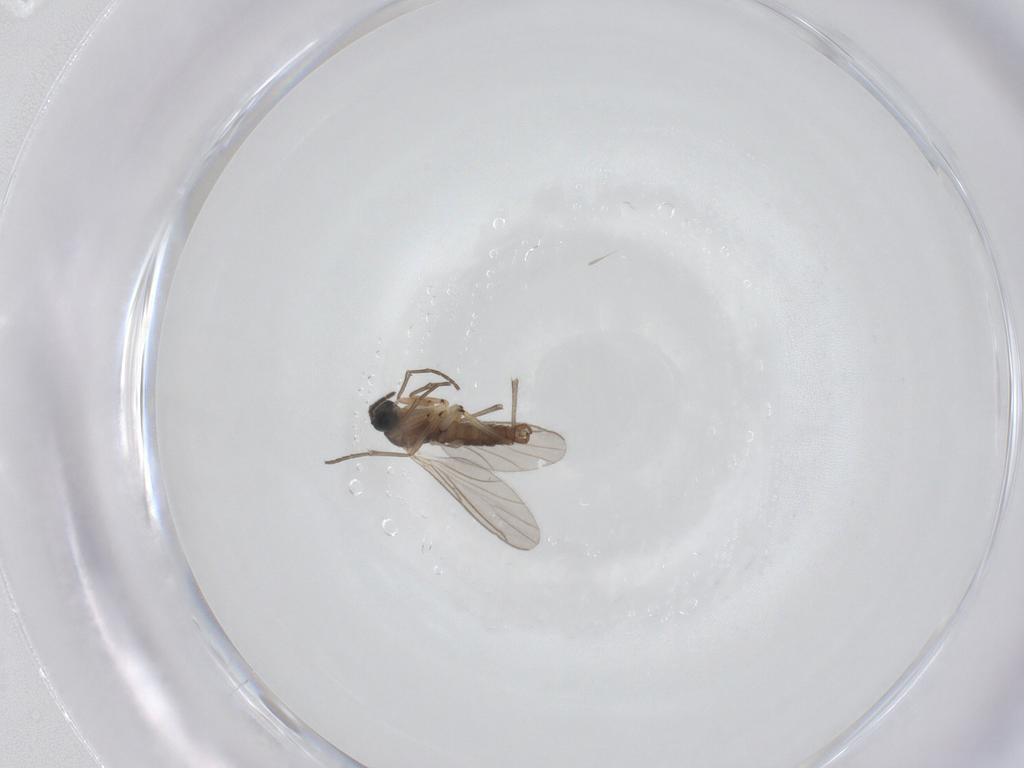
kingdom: Animalia
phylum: Arthropoda
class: Insecta
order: Diptera
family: Sciaridae
